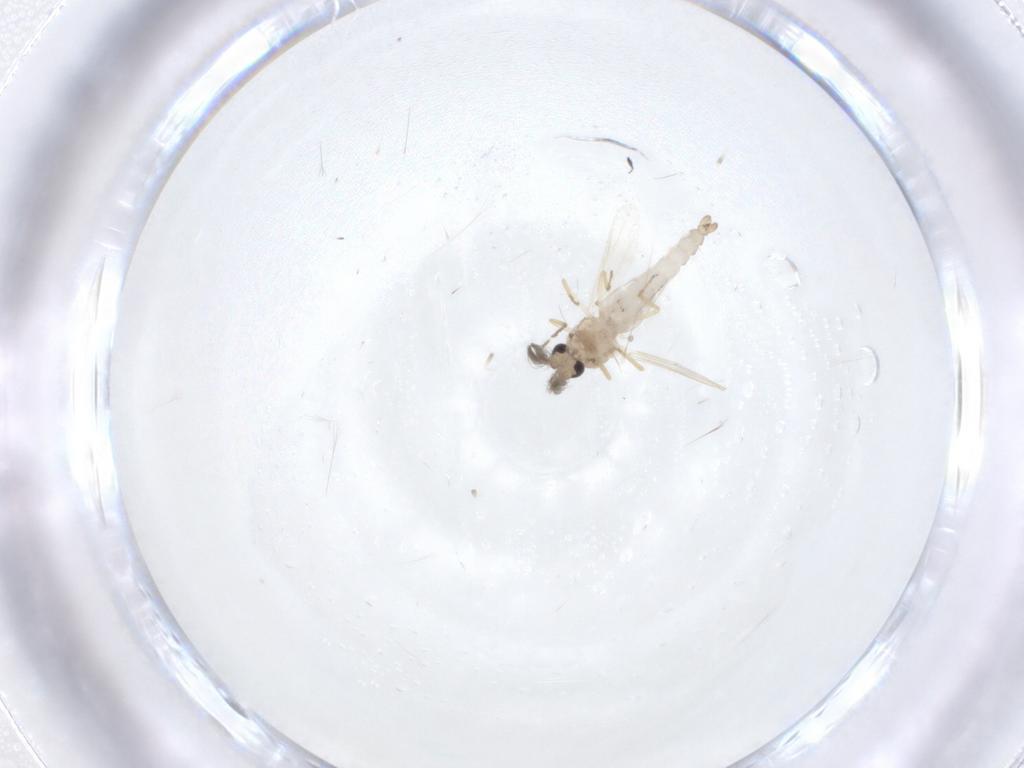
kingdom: Animalia
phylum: Arthropoda
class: Insecta
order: Diptera
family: Ceratopogonidae
